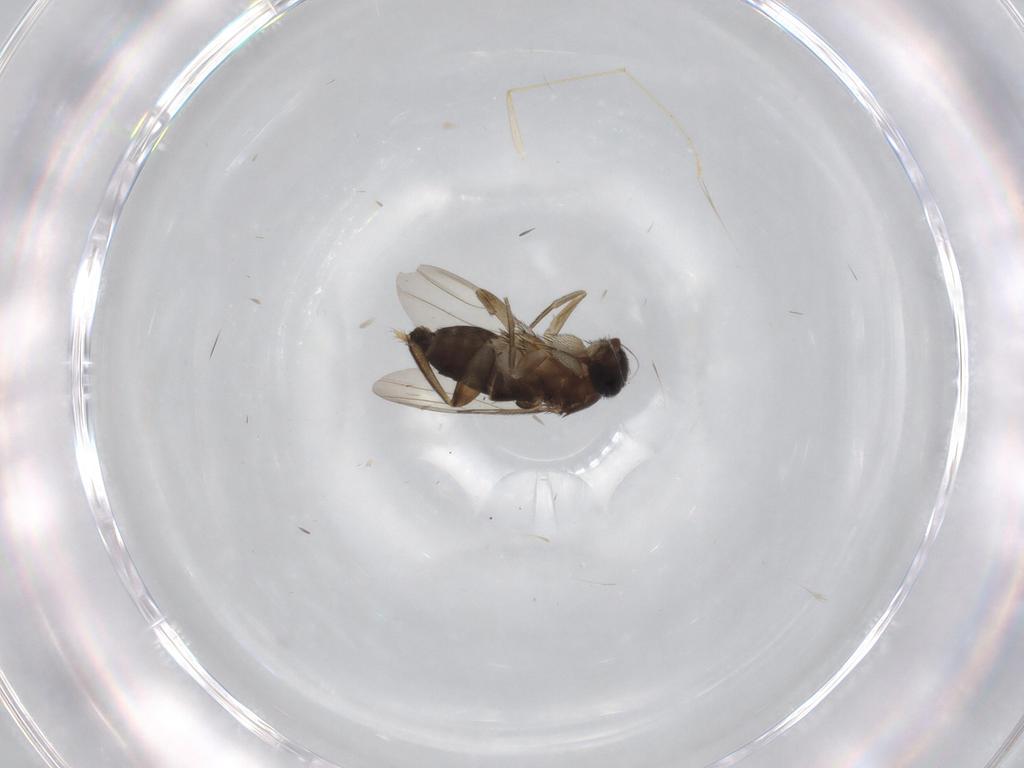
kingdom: Animalia
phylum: Arthropoda
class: Insecta
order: Diptera
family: Phoridae
